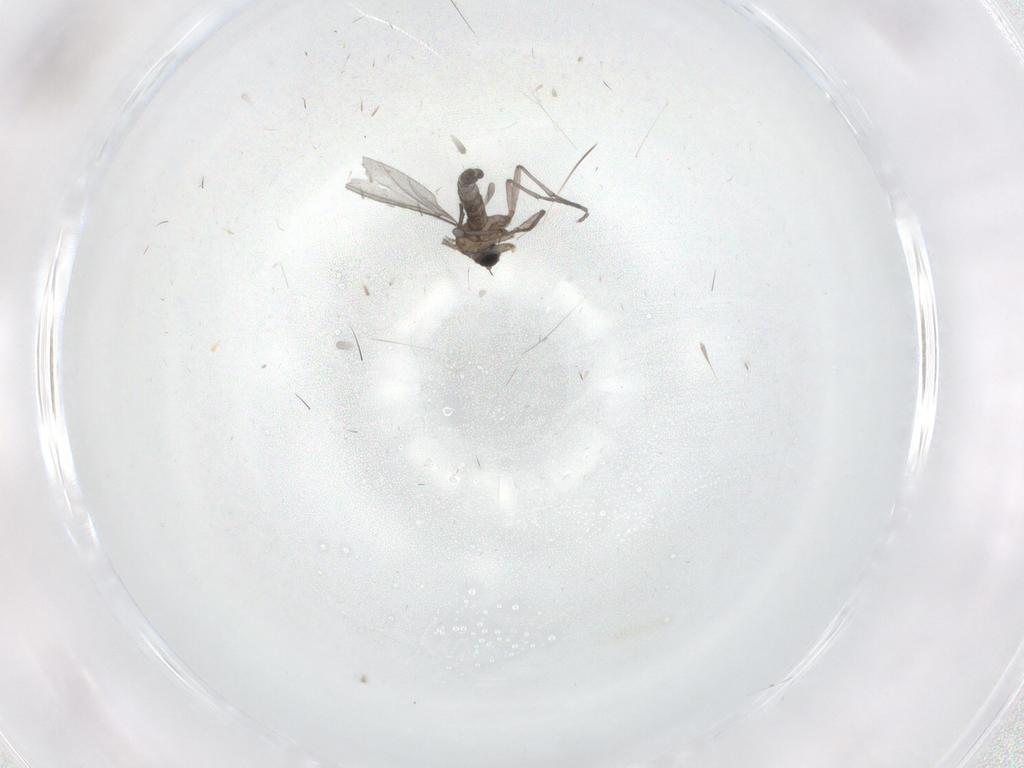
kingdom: Animalia
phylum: Arthropoda
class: Insecta
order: Diptera
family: Sciaridae
